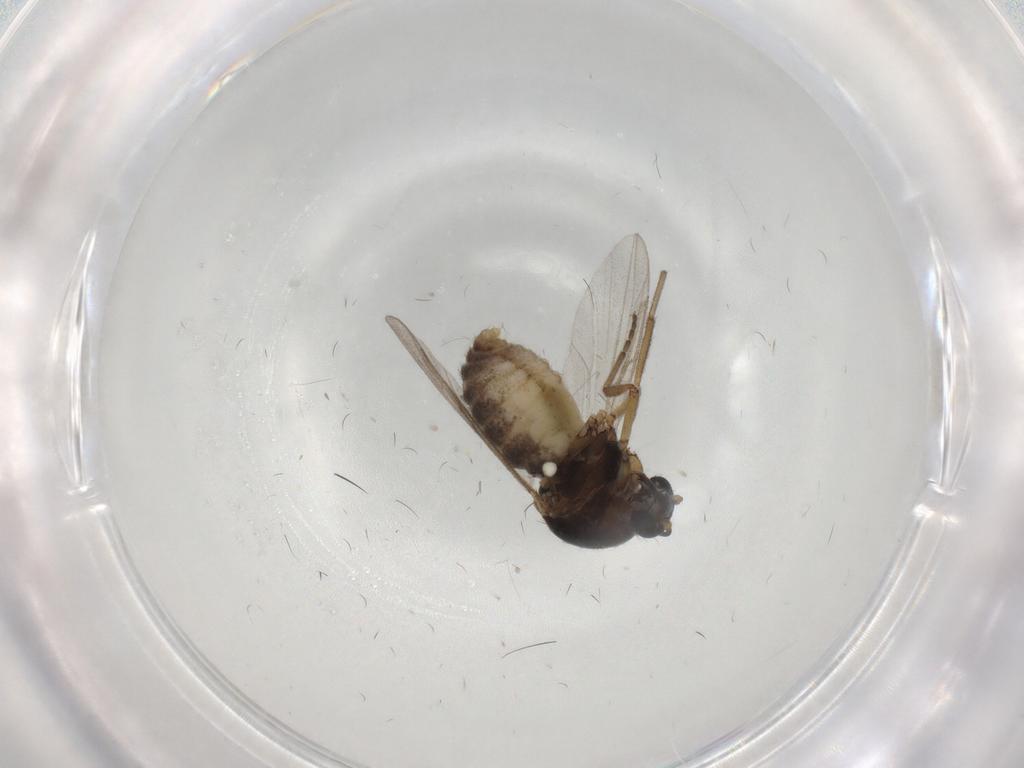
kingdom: Animalia
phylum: Arthropoda
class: Insecta
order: Diptera
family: Ceratopogonidae
